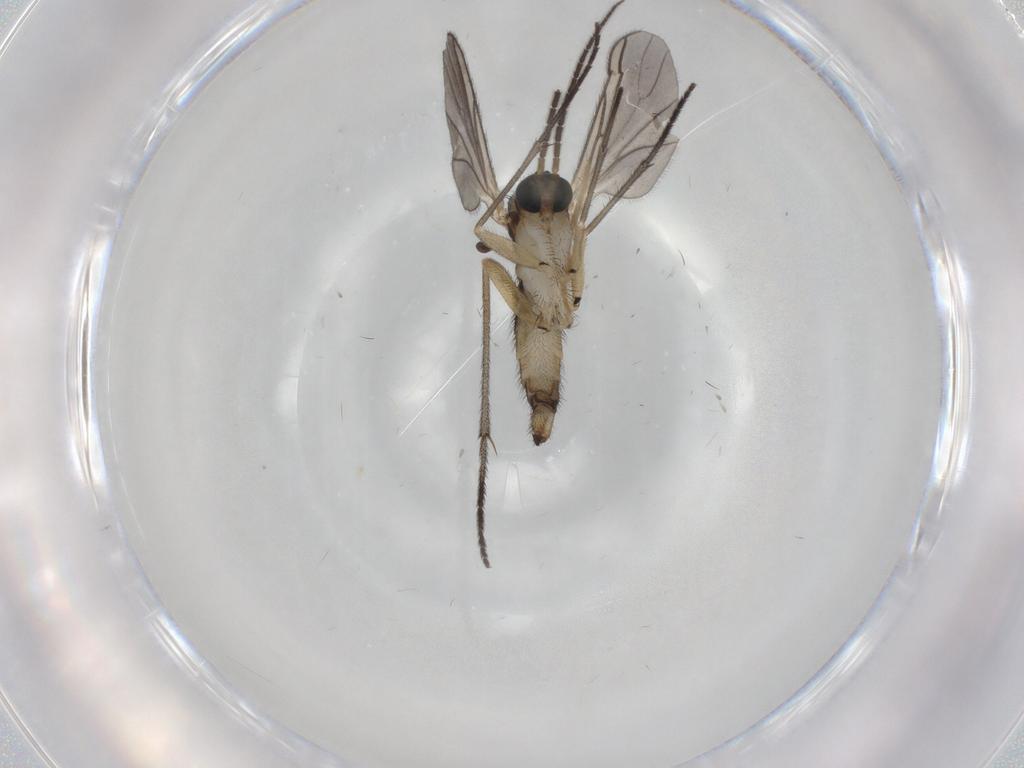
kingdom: Animalia
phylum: Arthropoda
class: Insecta
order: Diptera
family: Sciaridae
